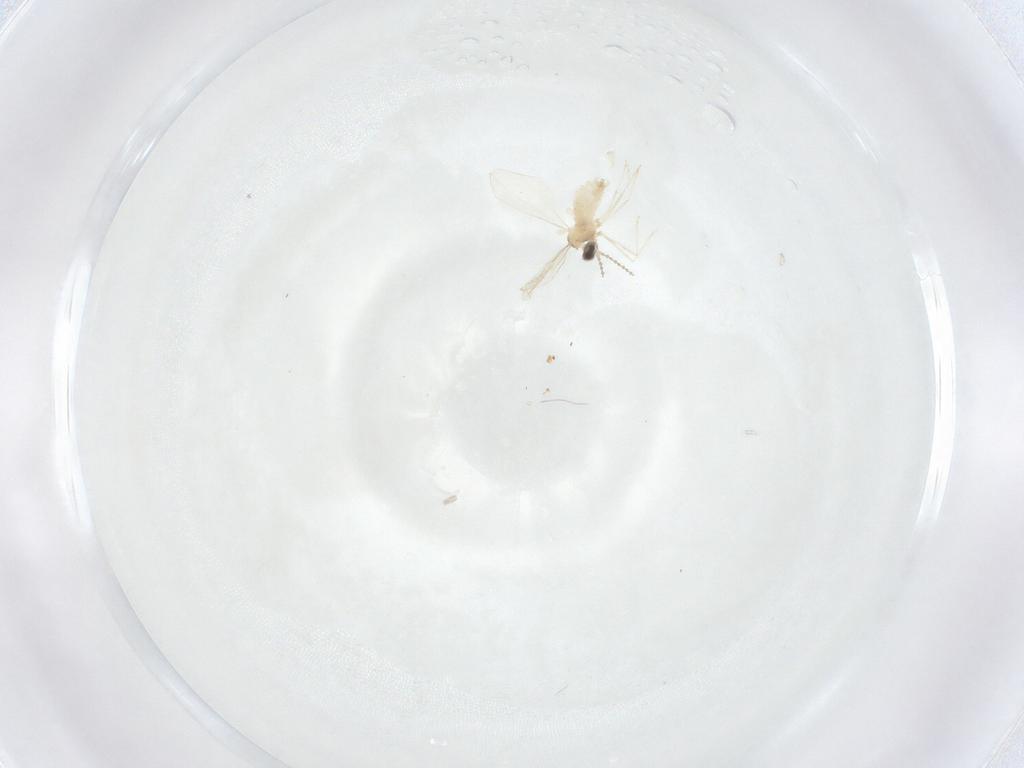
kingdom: Animalia
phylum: Arthropoda
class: Insecta
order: Diptera
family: Cecidomyiidae
